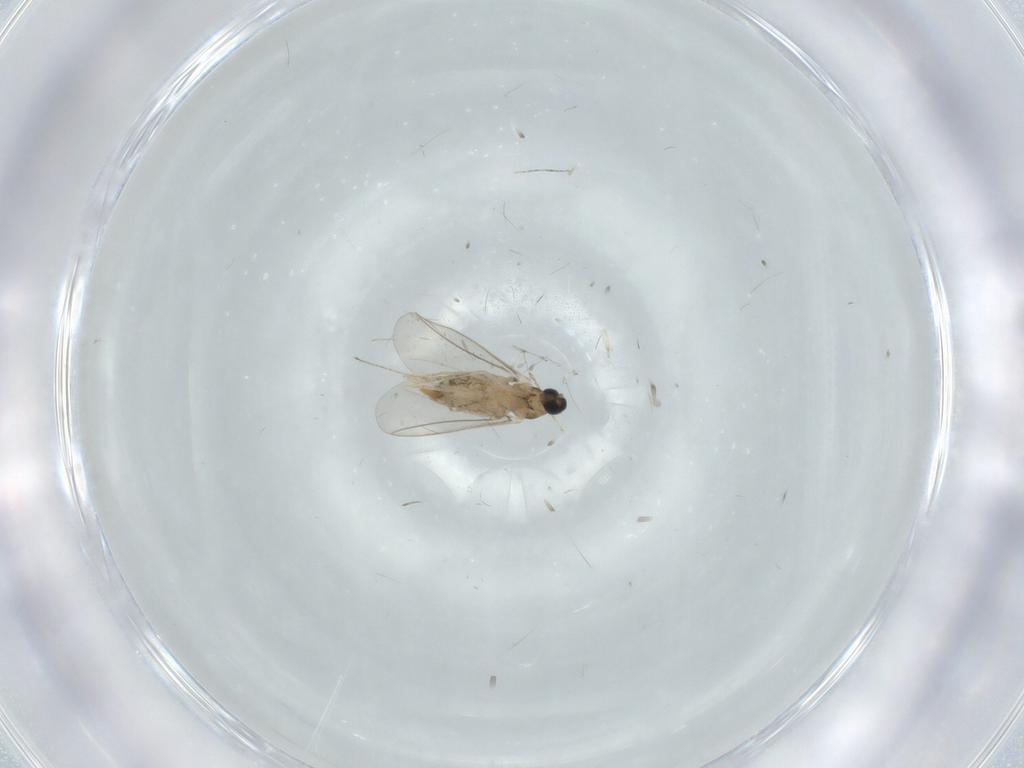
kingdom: Animalia
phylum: Arthropoda
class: Insecta
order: Diptera
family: Cecidomyiidae
